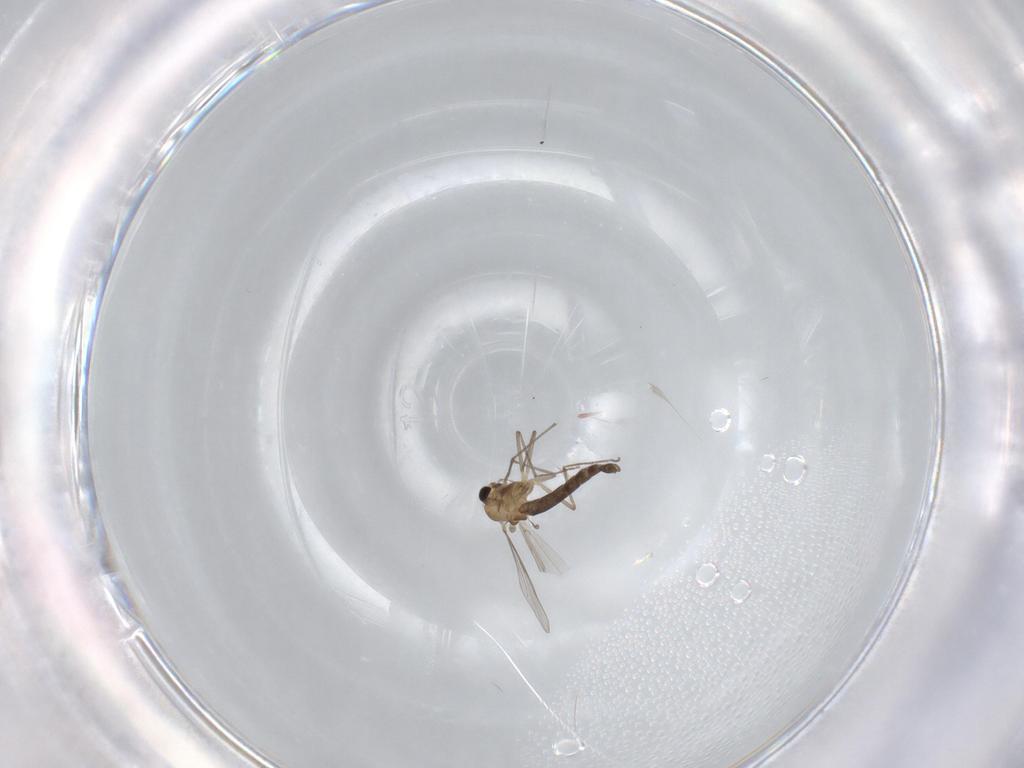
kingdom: Animalia
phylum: Arthropoda
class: Insecta
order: Diptera
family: Chironomidae
